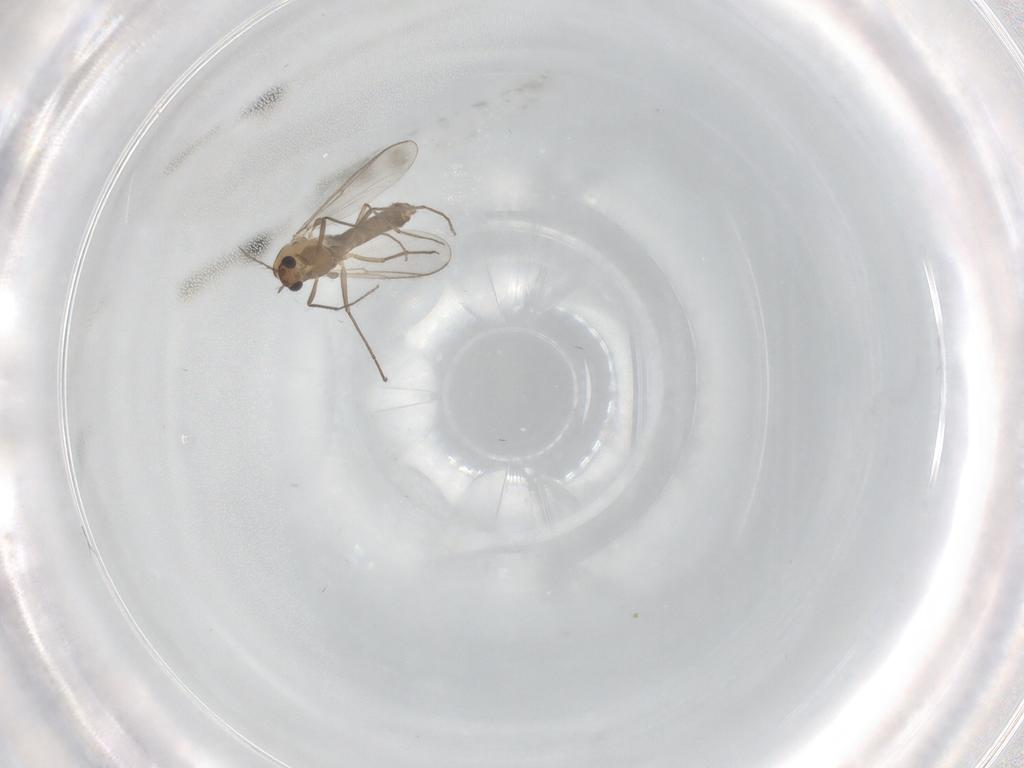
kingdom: Animalia
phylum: Arthropoda
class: Insecta
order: Diptera
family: Chironomidae
